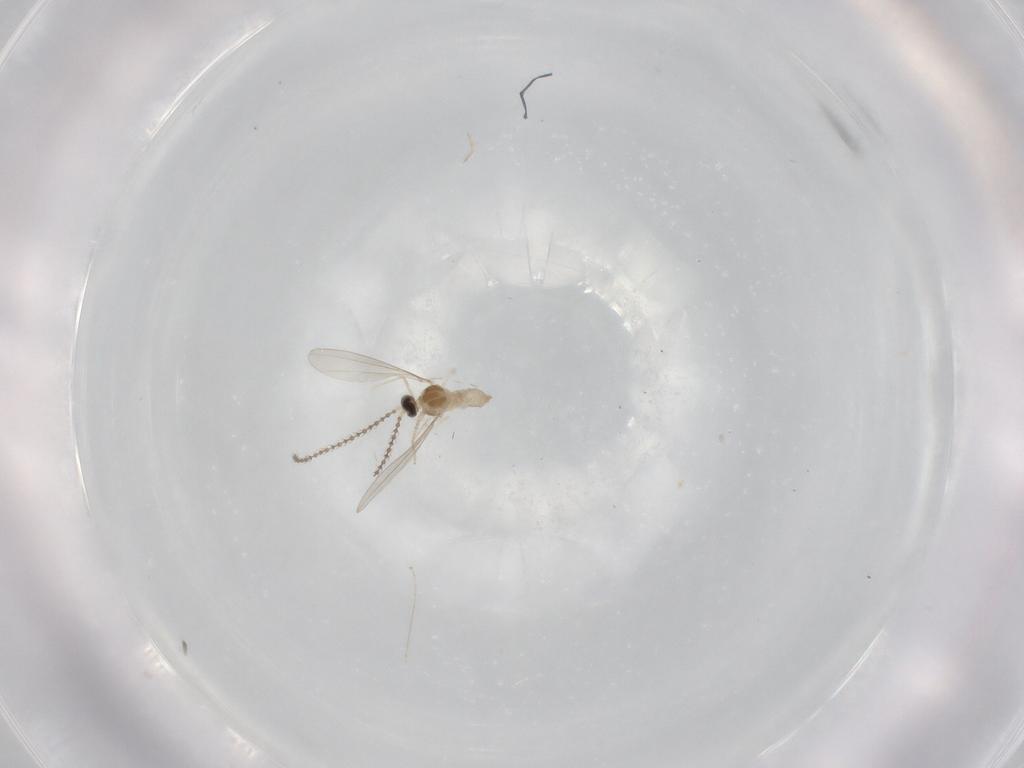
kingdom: Animalia
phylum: Arthropoda
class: Insecta
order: Diptera
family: Cecidomyiidae
